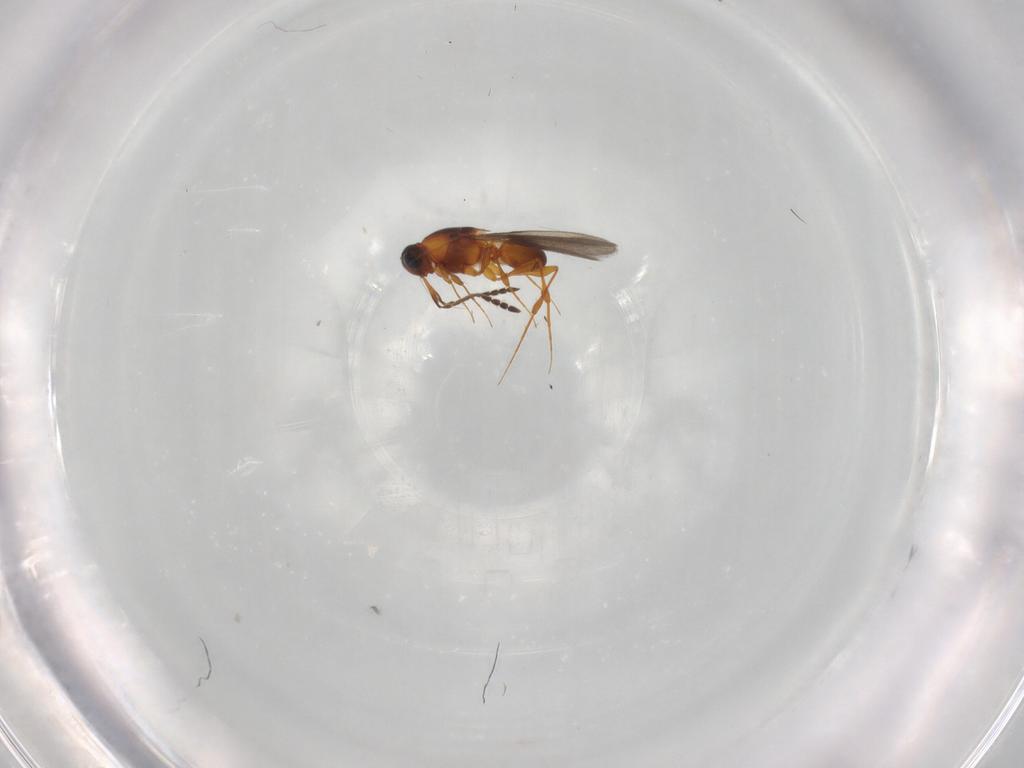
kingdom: Animalia
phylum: Arthropoda
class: Insecta
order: Hymenoptera
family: Platygastridae
